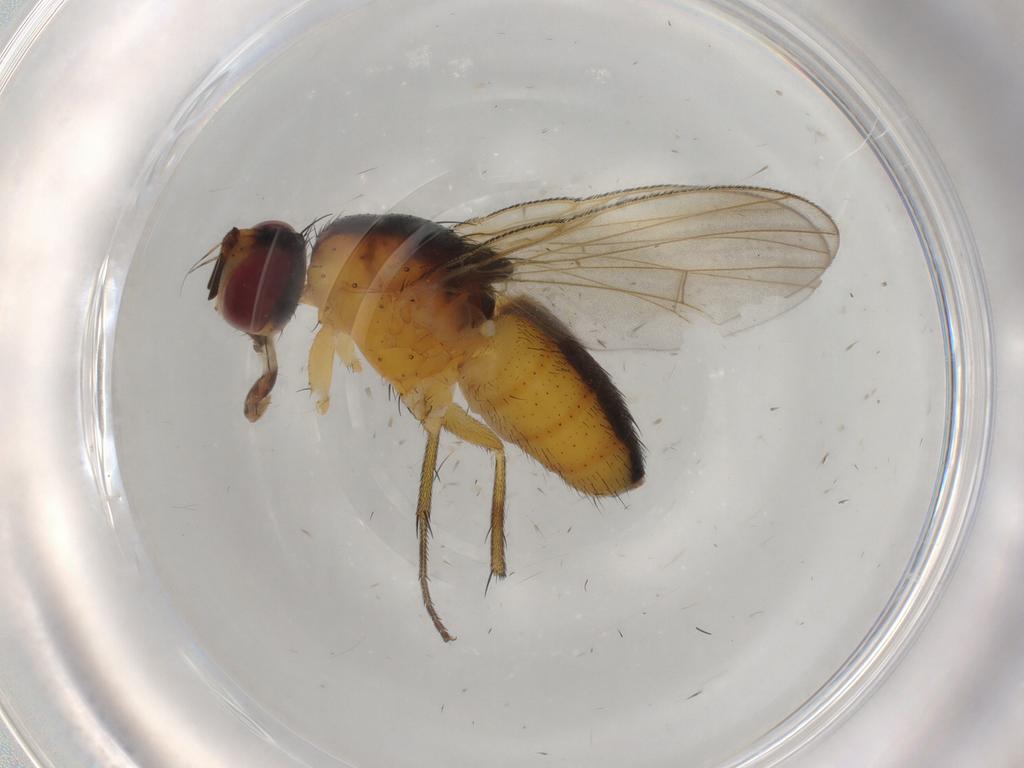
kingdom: Animalia
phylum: Arthropoda
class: Insecta
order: Diptera
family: Muscidae
